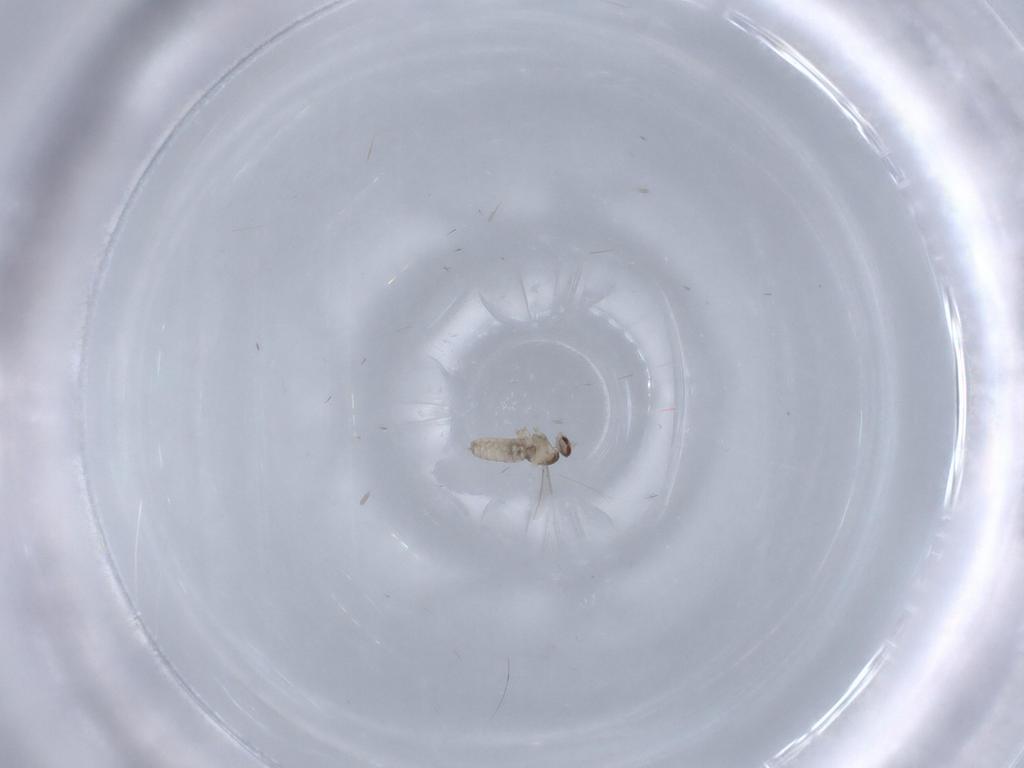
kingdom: Animalia
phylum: Arthropoda
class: Insecta
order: Diptera
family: Cecidomyiidae
